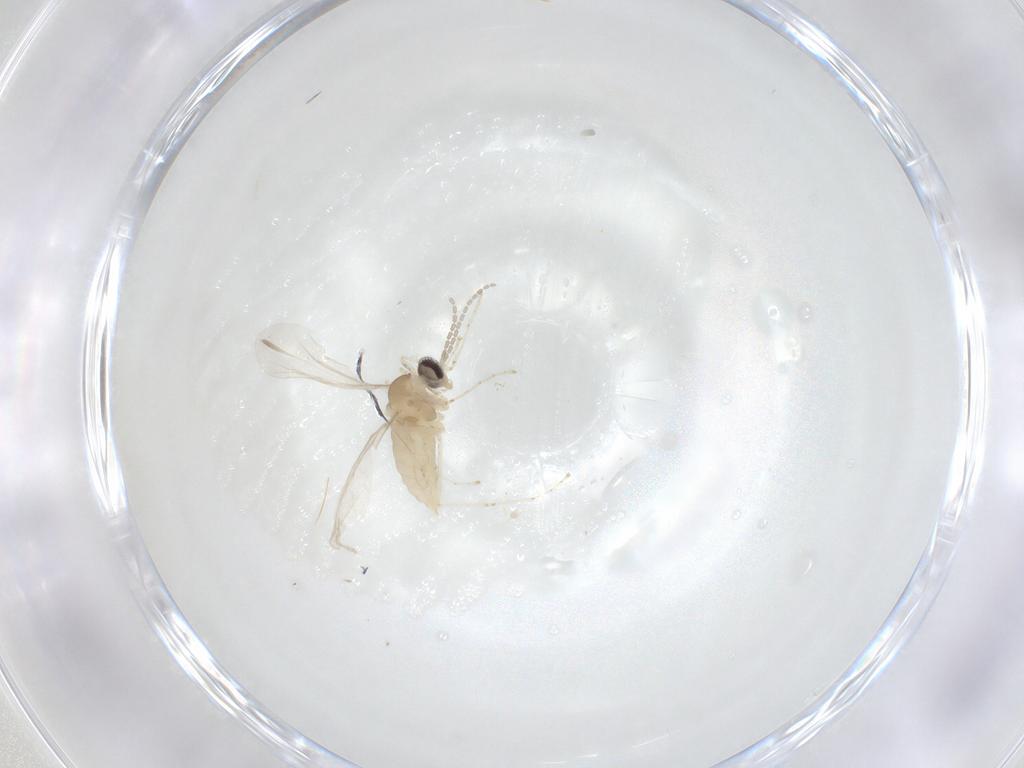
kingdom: Animalia
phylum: Arthropoda
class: Insecta
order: Diptera
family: Cecidomyiidae
